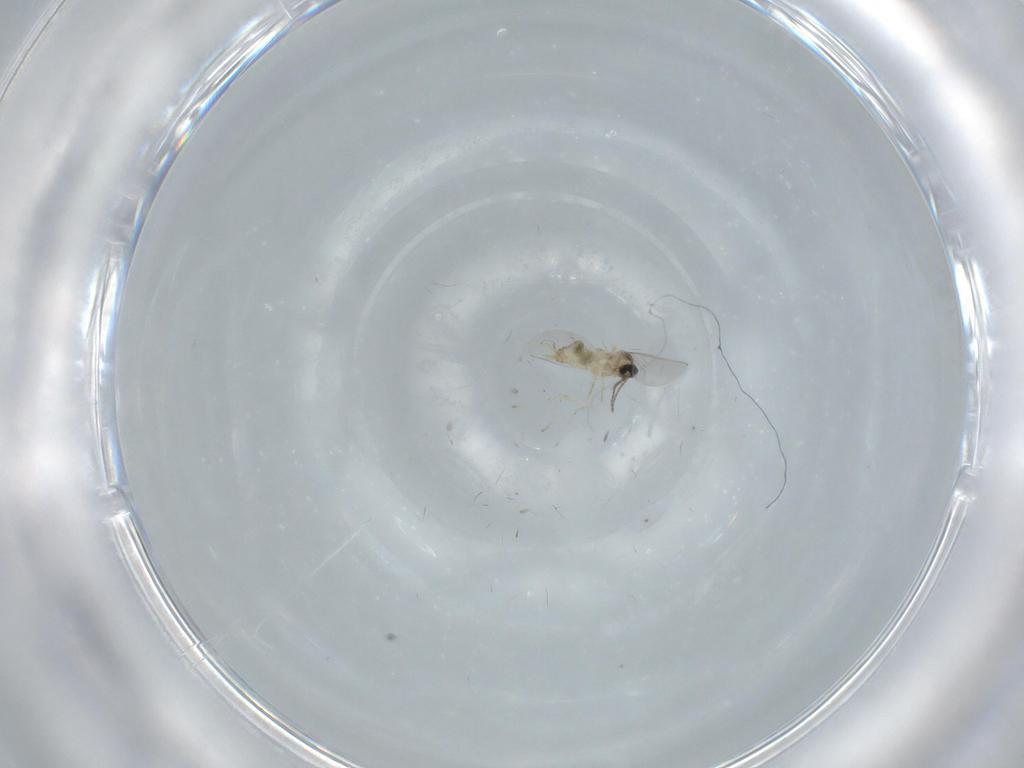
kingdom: Animalia
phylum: Arthropoda
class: Insecta
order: Diptera
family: Cecidomyiidae
